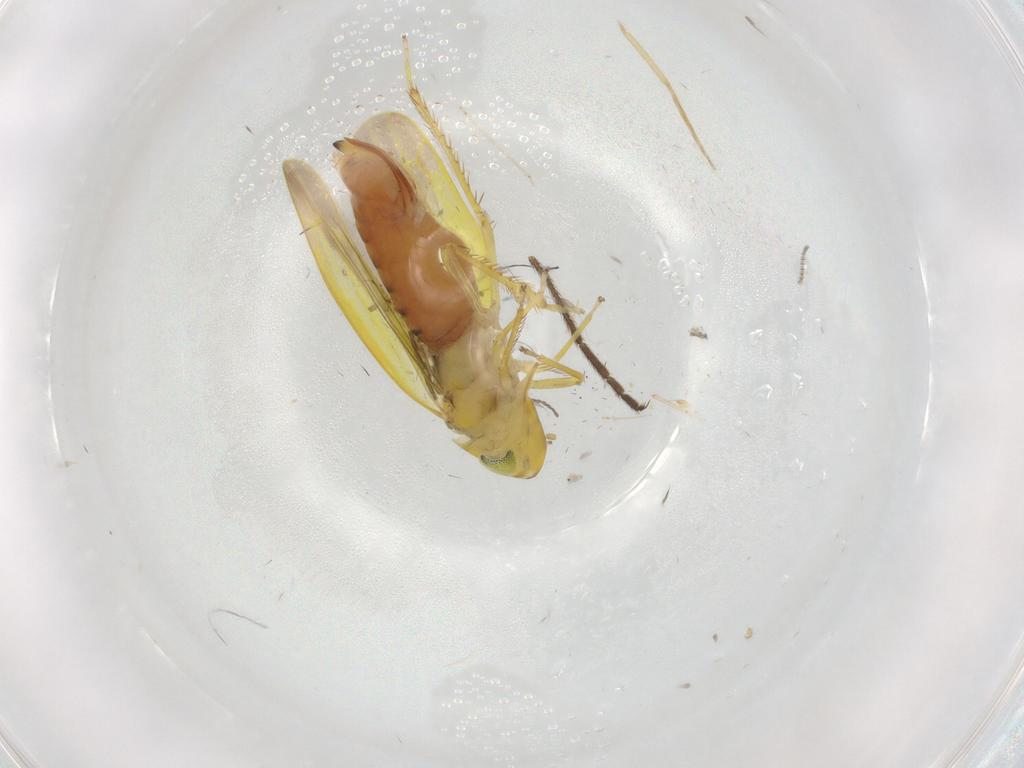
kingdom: Animalia
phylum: Arthropoda
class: Insecta
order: Hemiptera
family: Cicadellidae
